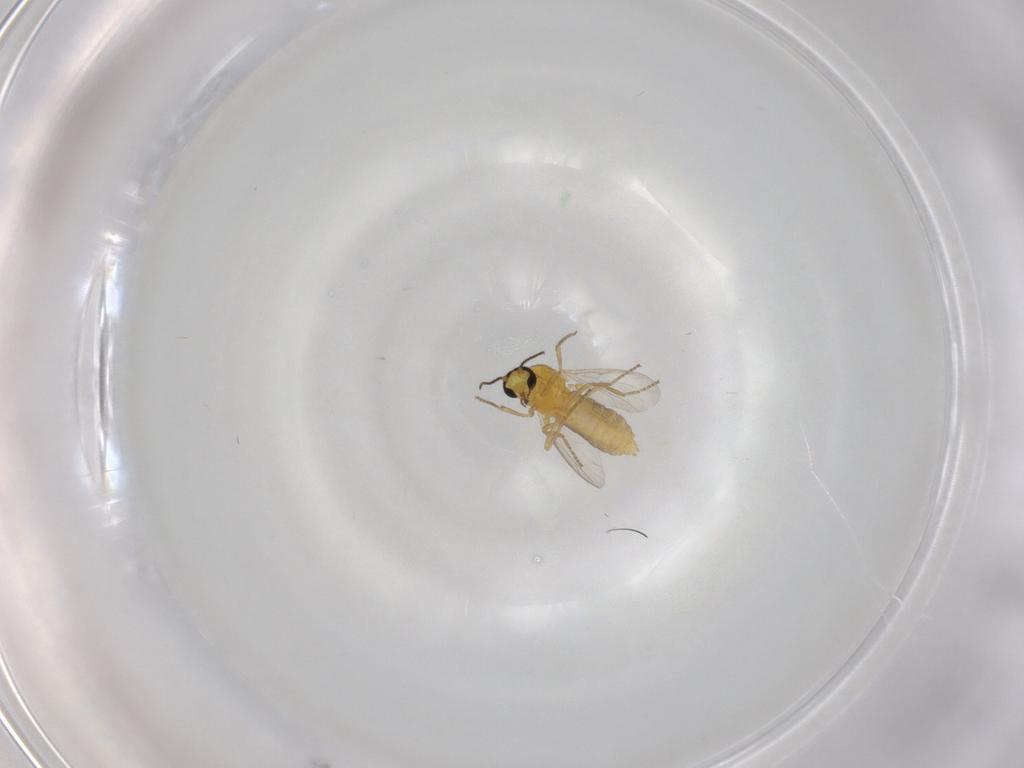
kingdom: Animalia
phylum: Arthropoda
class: Insecta
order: Diptera
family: Ceratopogonidae
